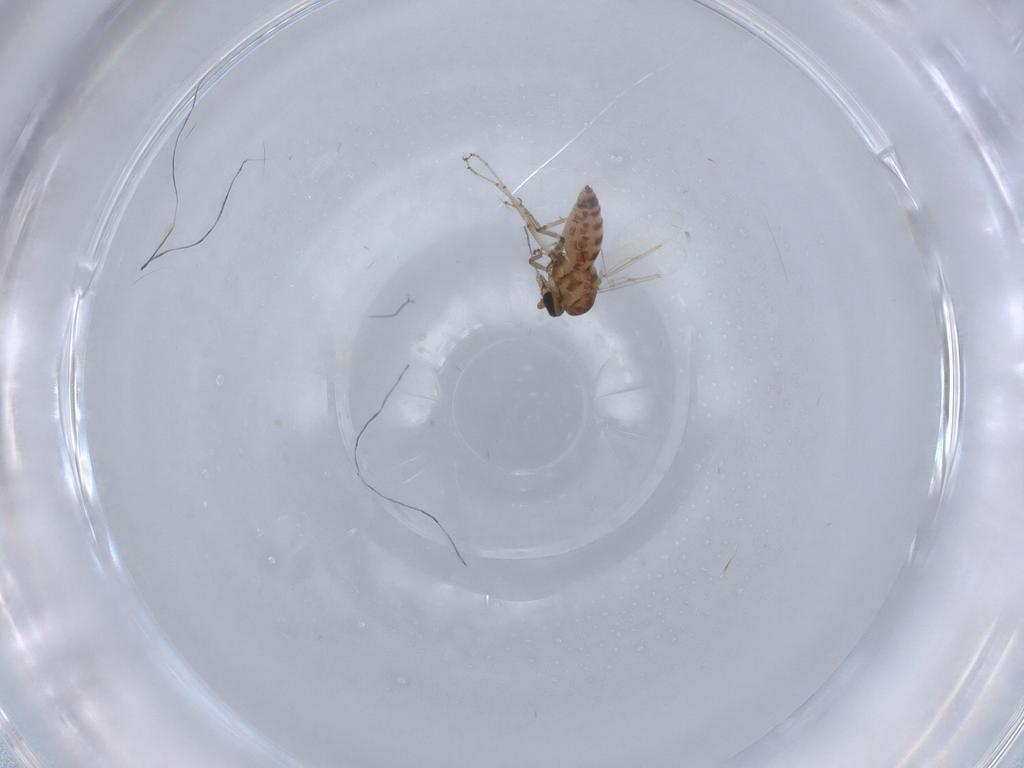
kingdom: Animalia
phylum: Arthropoda
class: Insecta
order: Diptera
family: Ceratopogonidae
